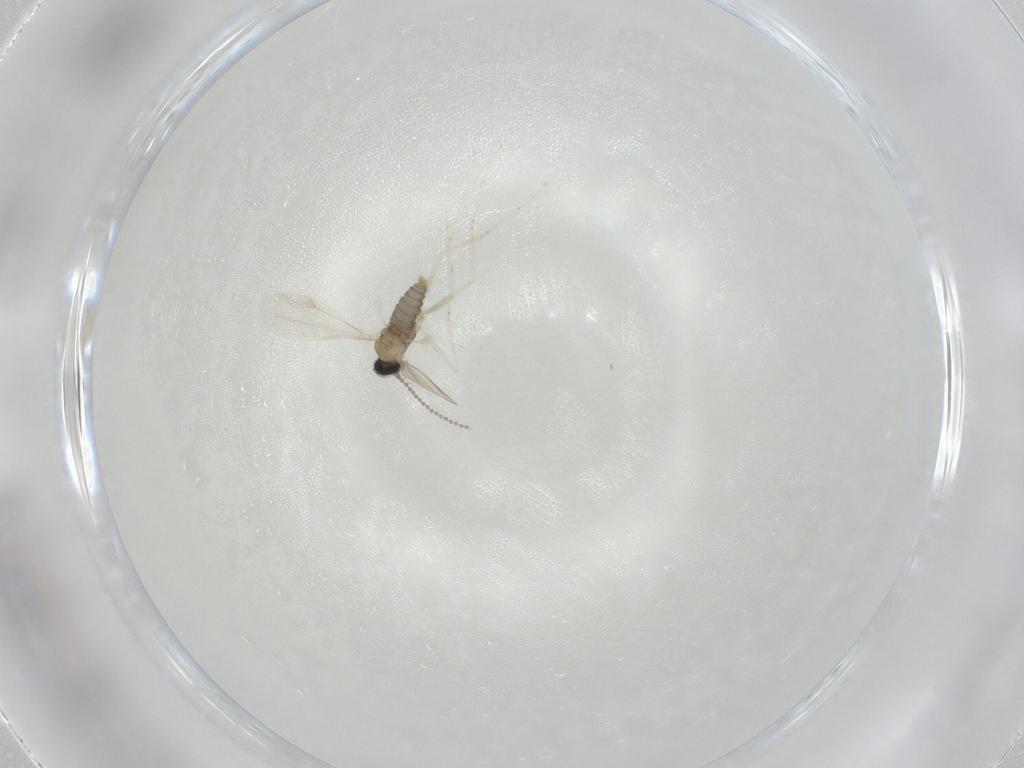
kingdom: Animalia
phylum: Arthropoda
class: Insecta
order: Diptera
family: Cecidomyiidae
